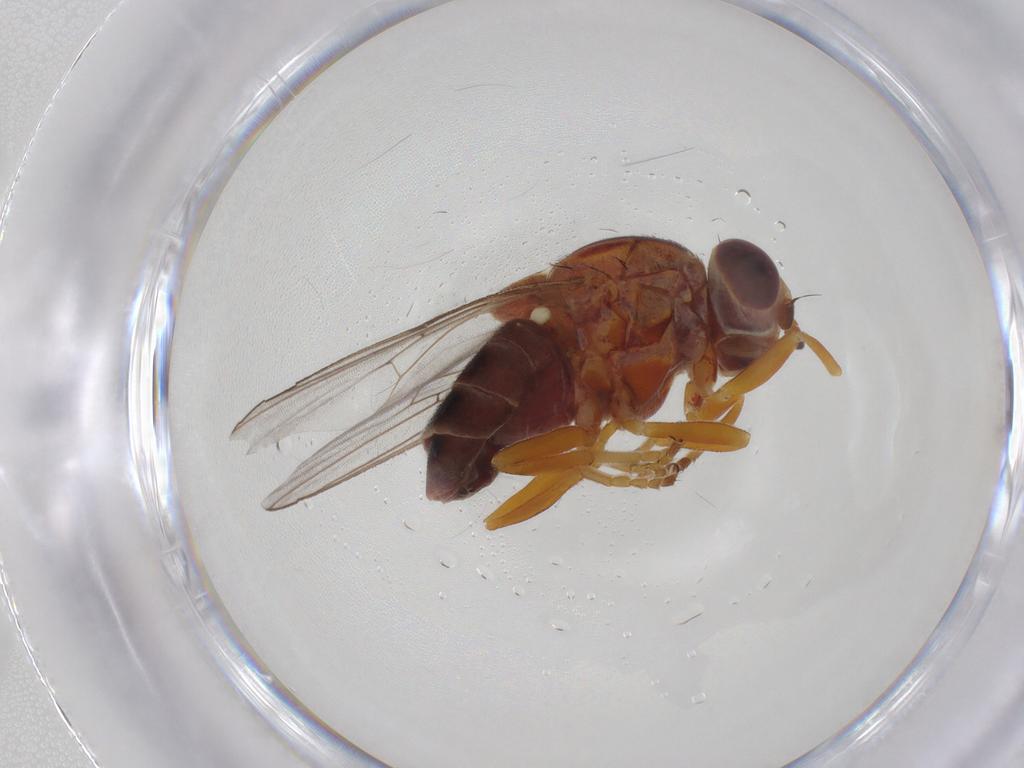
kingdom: Animalia
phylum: Arthropoda
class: Insecta
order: Diptera
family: Chloropidae
